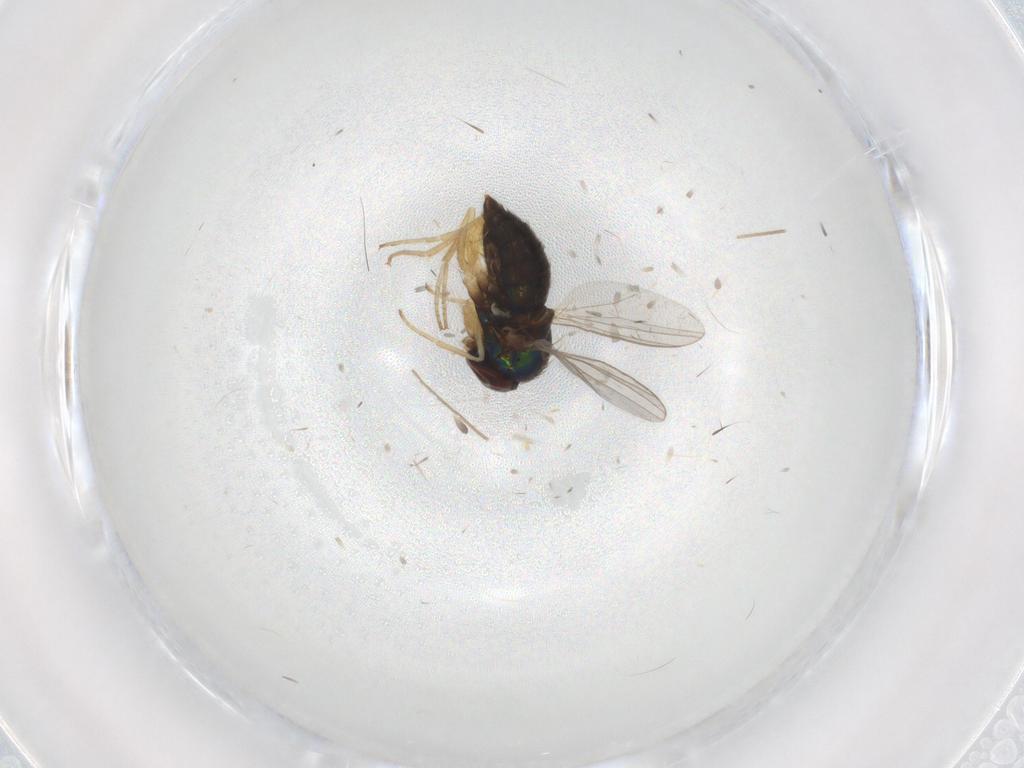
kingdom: Animalia
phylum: Arthropoda
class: Insecta
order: Diptera
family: Dolichopodidae
